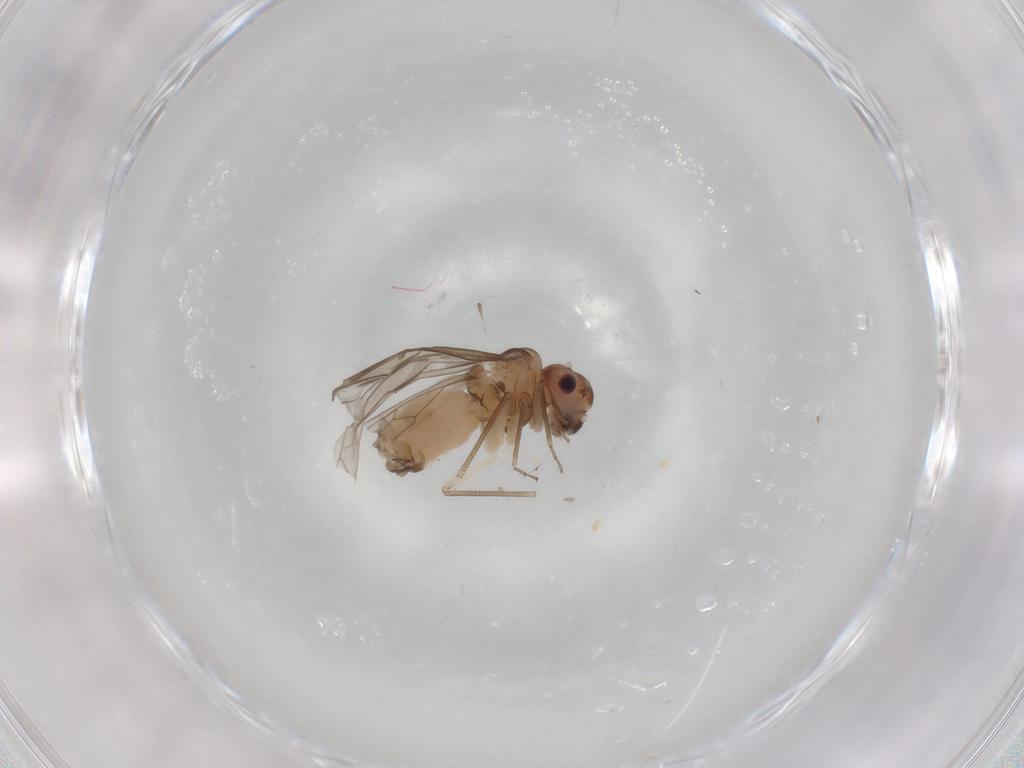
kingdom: Animalia
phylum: Arthropoda
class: Insecta
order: Psocodea
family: Peripsocidae
